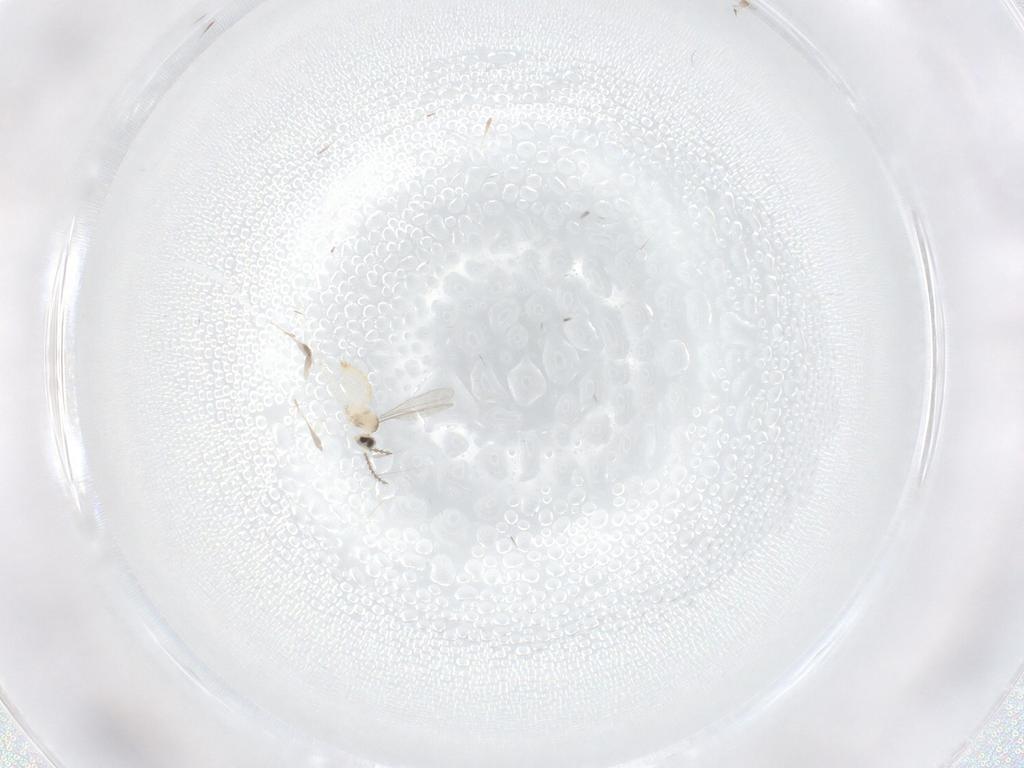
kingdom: Animalia
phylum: Arthropoda
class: Insecta
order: Diptera
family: Cecidomyiidae
